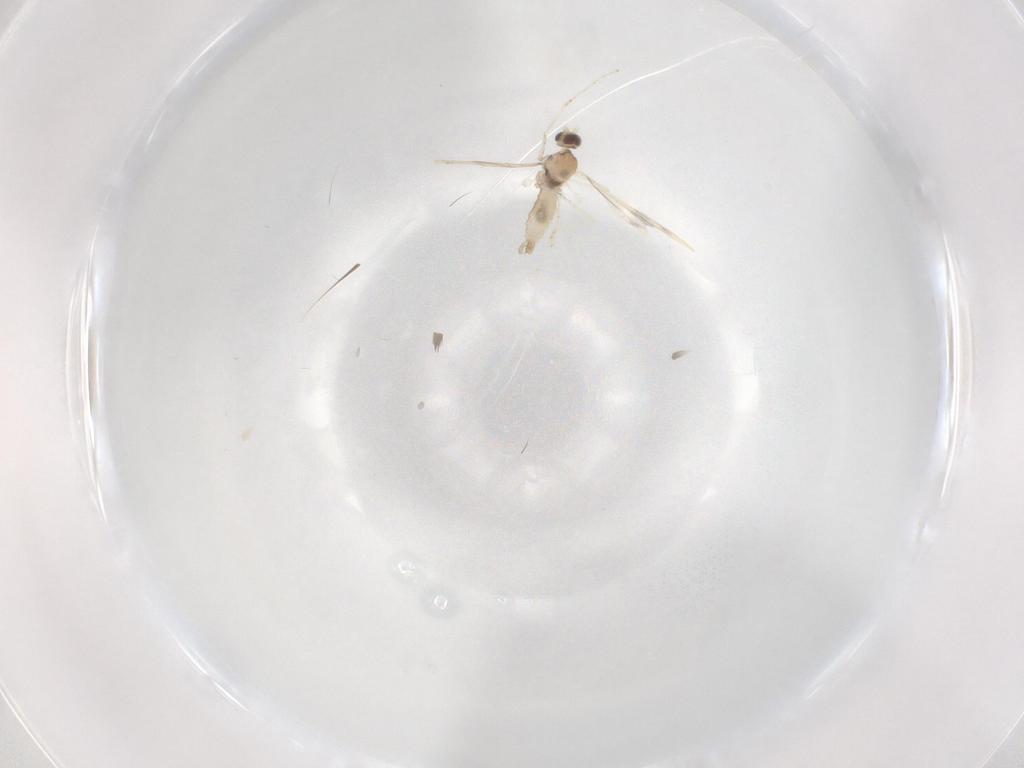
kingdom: Animalia
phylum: Arthropoda
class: Insecta
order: Diptera
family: Cecidomyiidae
